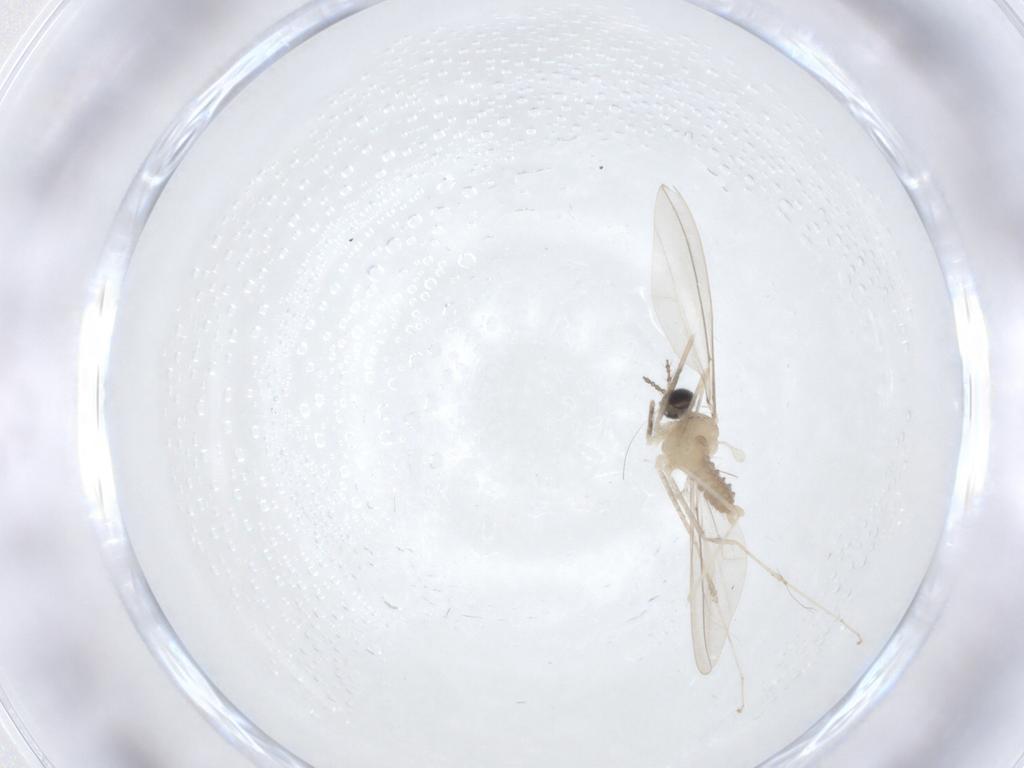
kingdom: Animalia
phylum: Arthropoda
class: Insecta
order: Diptera
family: Cecidomyiidae
